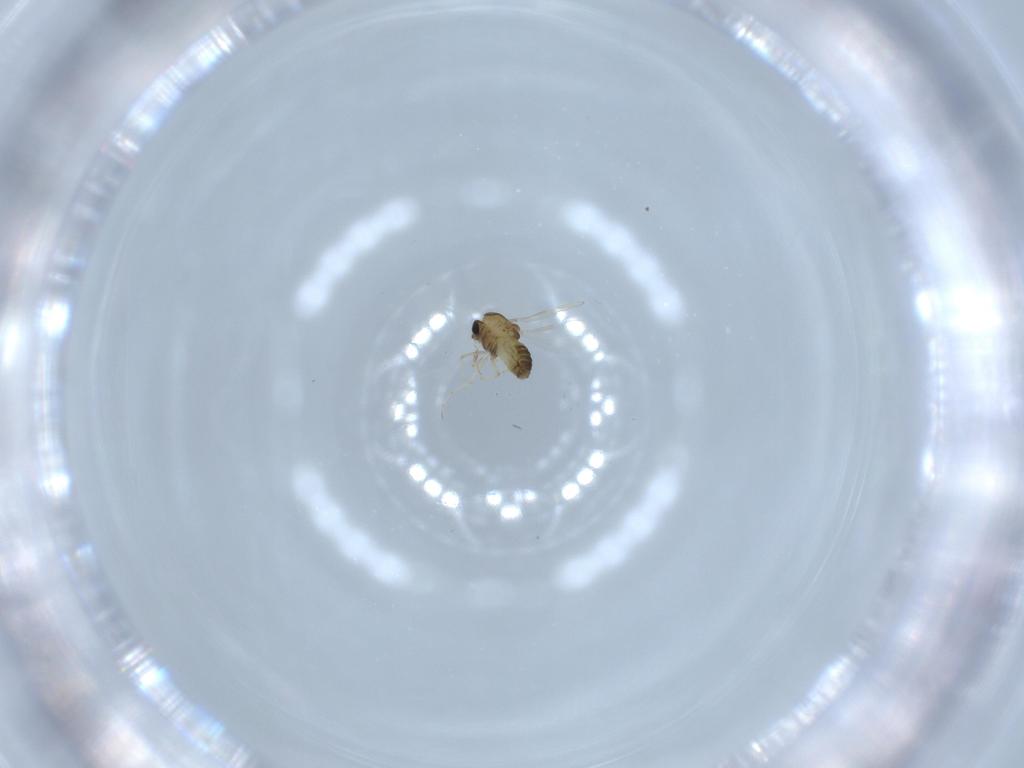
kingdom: Animalia
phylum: Arthropoda
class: Insecta
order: Diptera
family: Chironomidae
